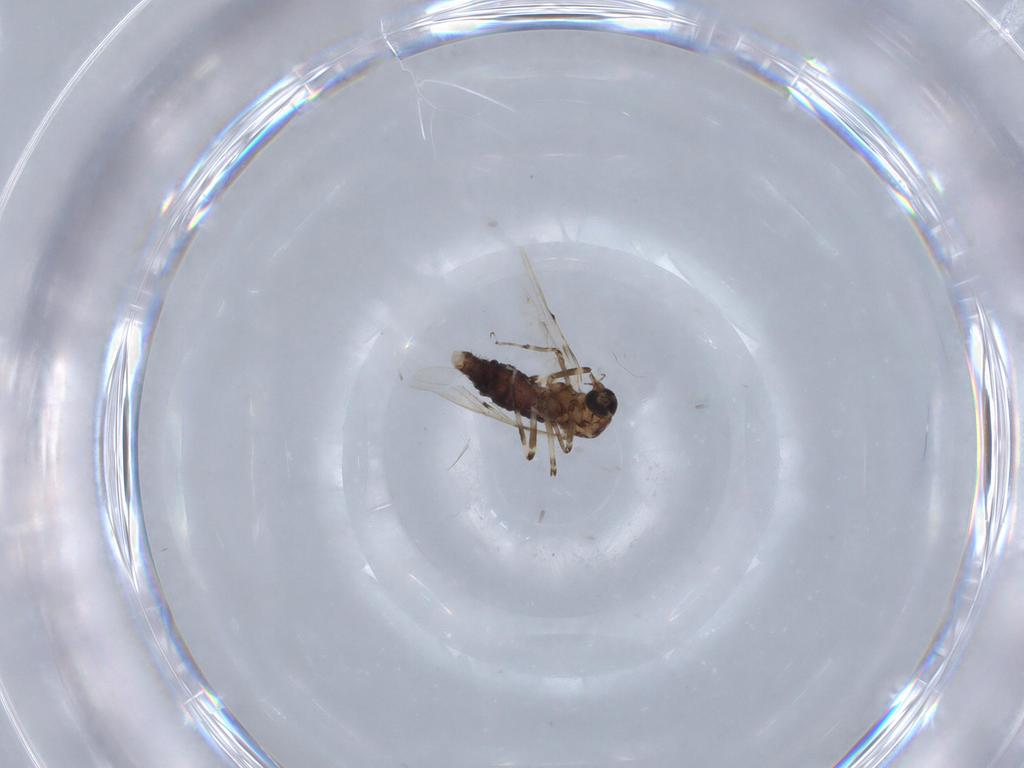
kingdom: Animalia
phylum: Arthropoda
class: Insecta
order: Diptera
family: Ceratopogonidae
